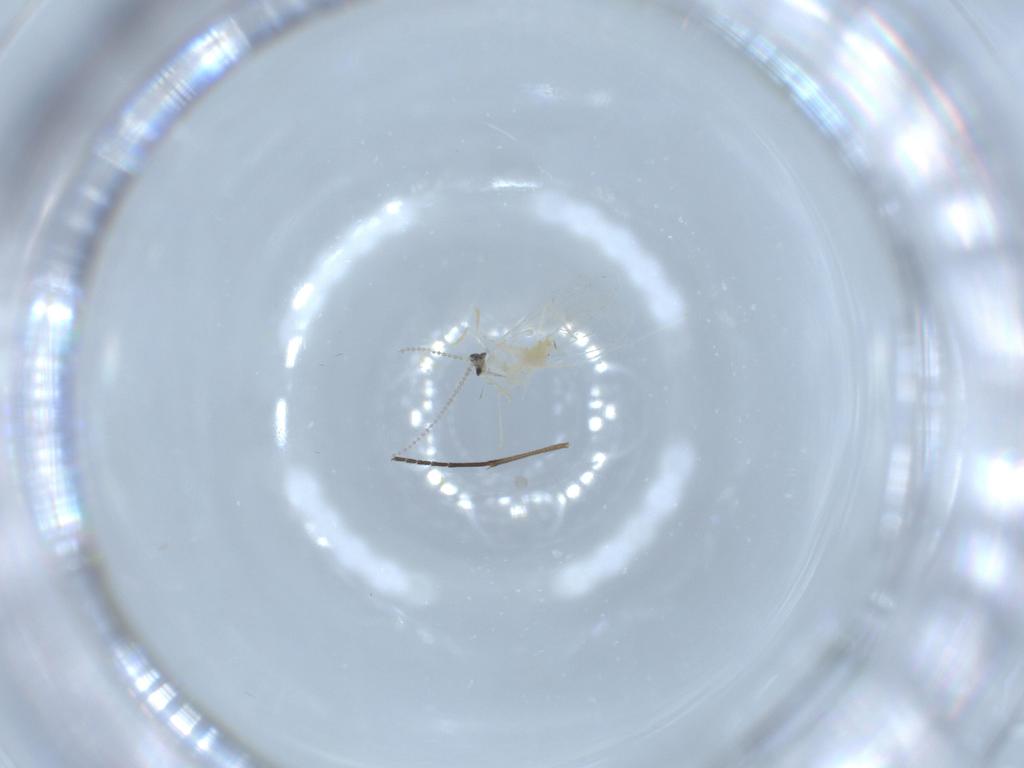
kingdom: Animalia
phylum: Arthropoda
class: Insecta
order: Diptera
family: Cecidomyiidae
